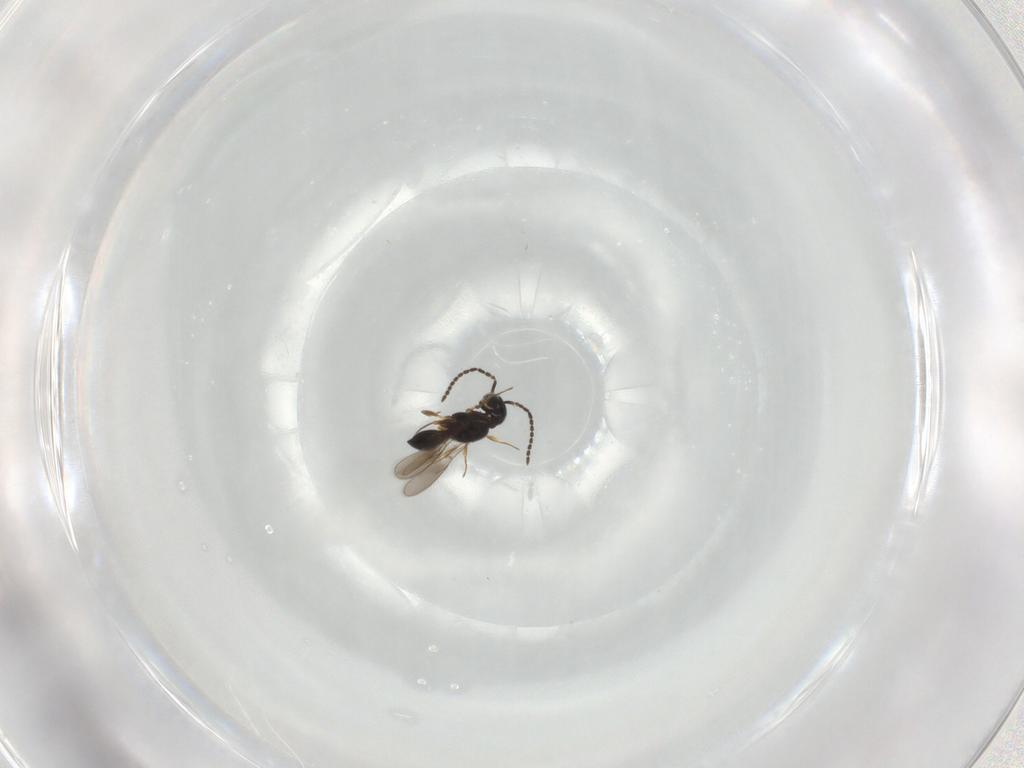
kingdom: Animalia
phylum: Arthropoda
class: Insecta
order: Hymenoptera
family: Scelionidae
